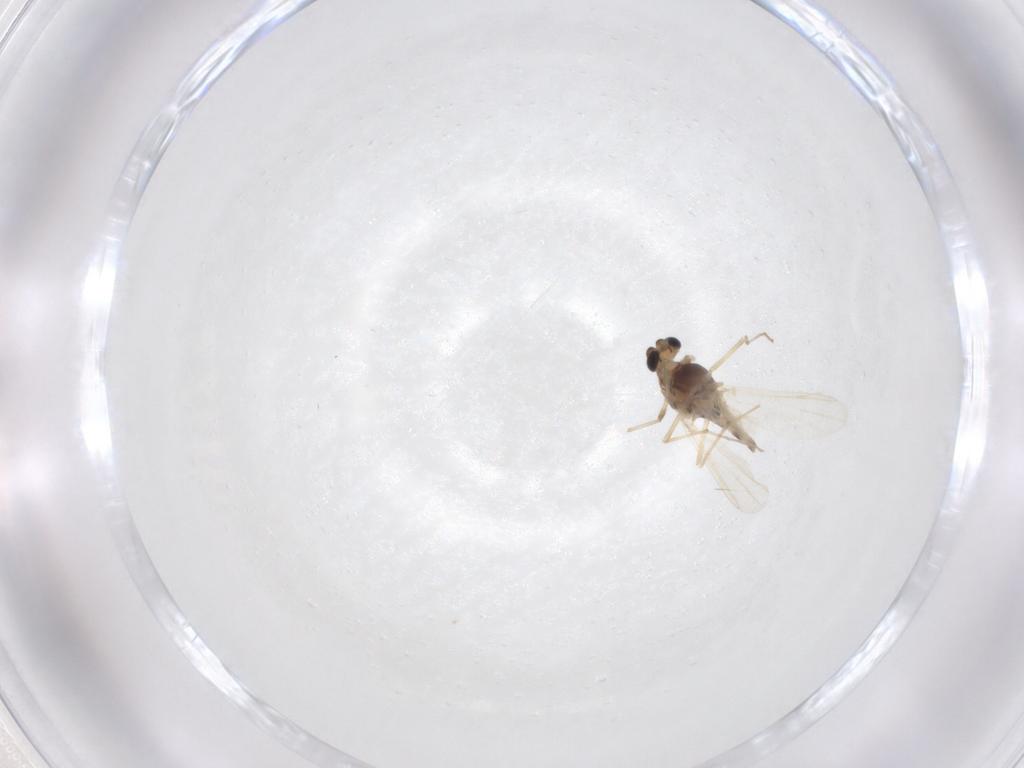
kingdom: Animalia
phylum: Arthropoda
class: Insecta
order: Diptera
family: Chironomidae
